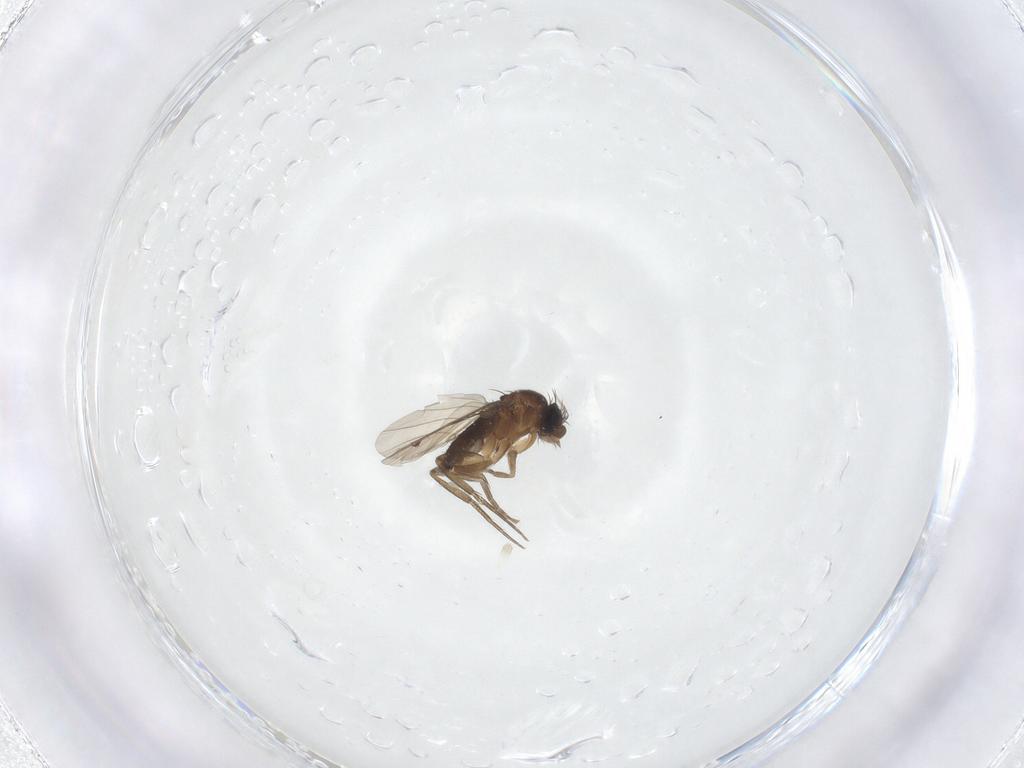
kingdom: Animalia
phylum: Arthropoda
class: Insecta
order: Diptera
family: Phoridae
